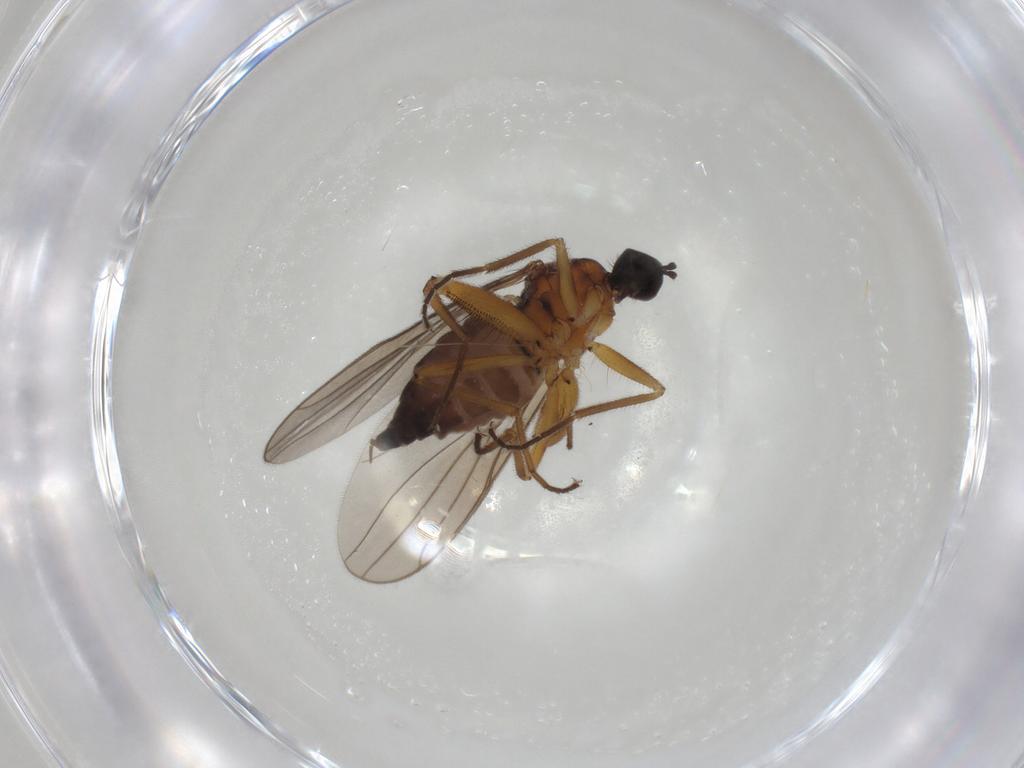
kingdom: Animalia
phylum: Arthropoda
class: Insecta
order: Diptera
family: Hybotidae
